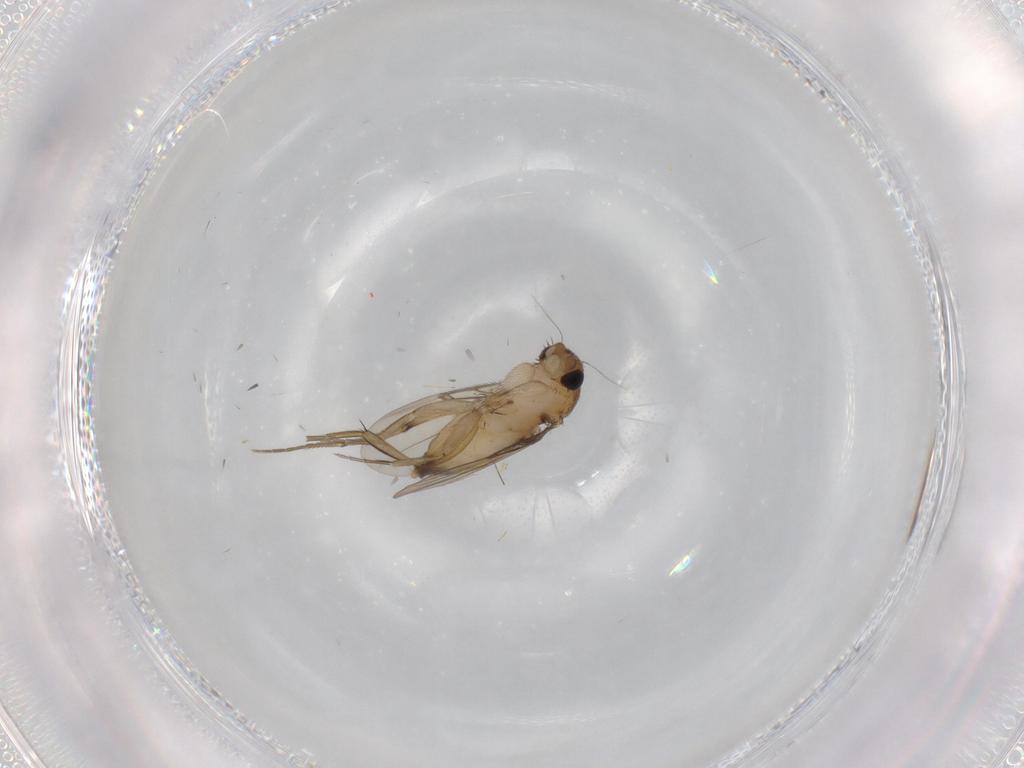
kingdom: Animalia
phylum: Arthropoda
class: Insecta
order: Diptera
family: Phoridae
